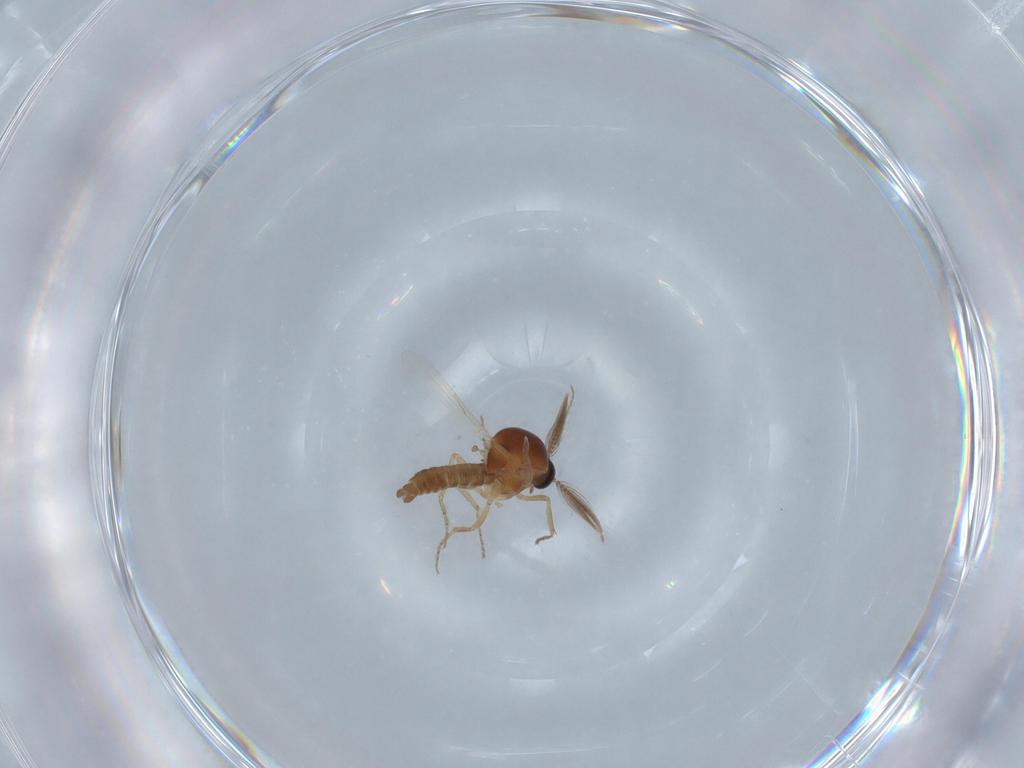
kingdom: Animalia
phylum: Arthropoda
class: Insecta
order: Diptera
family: Ceratopogonidae
